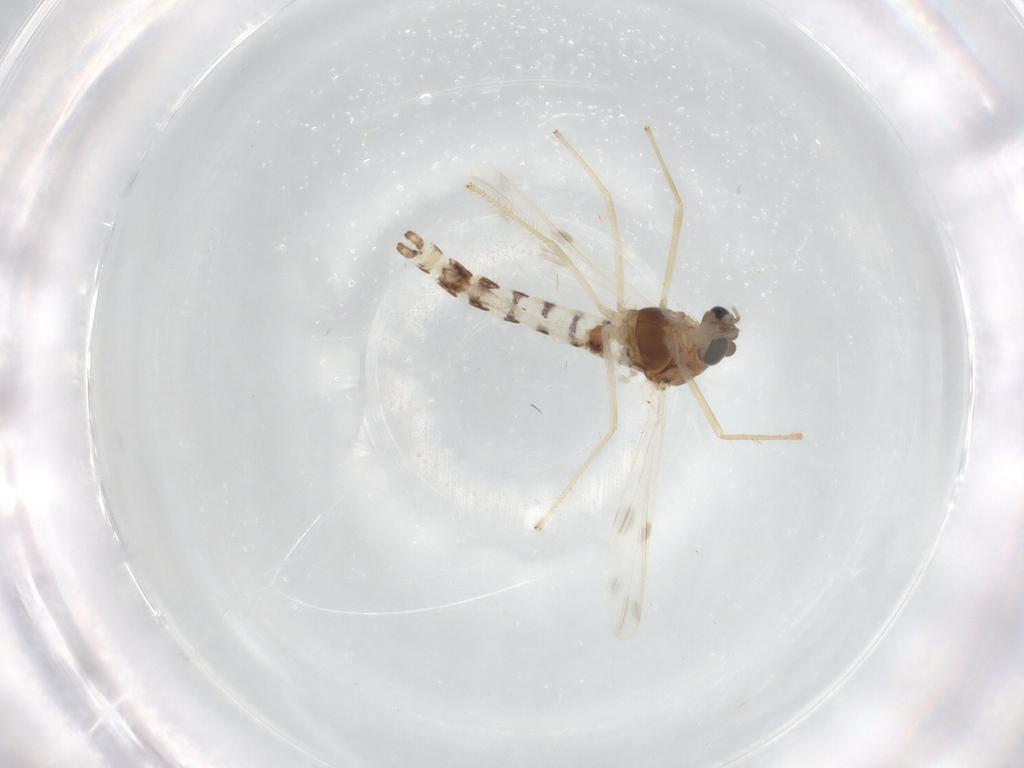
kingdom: Animalia
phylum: Arthropoda
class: Insecta
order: Diptera
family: Chironomidae
